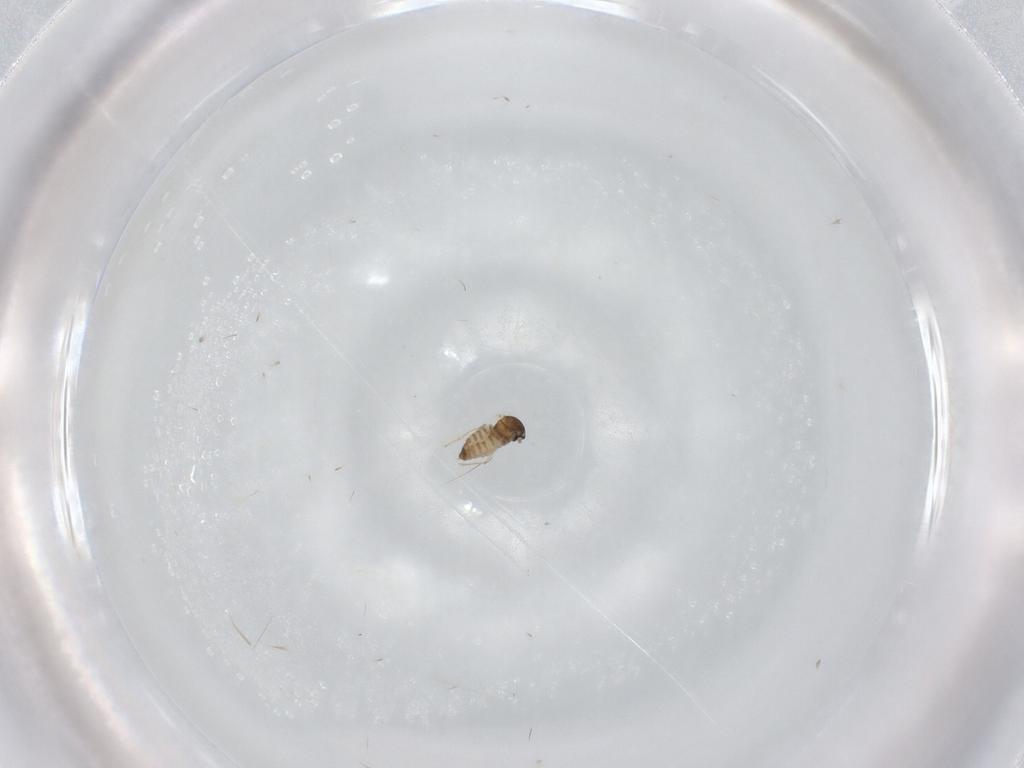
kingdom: Animalia
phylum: Arthropoda
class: Insecta
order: Diptera
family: Cecidomyiidae
